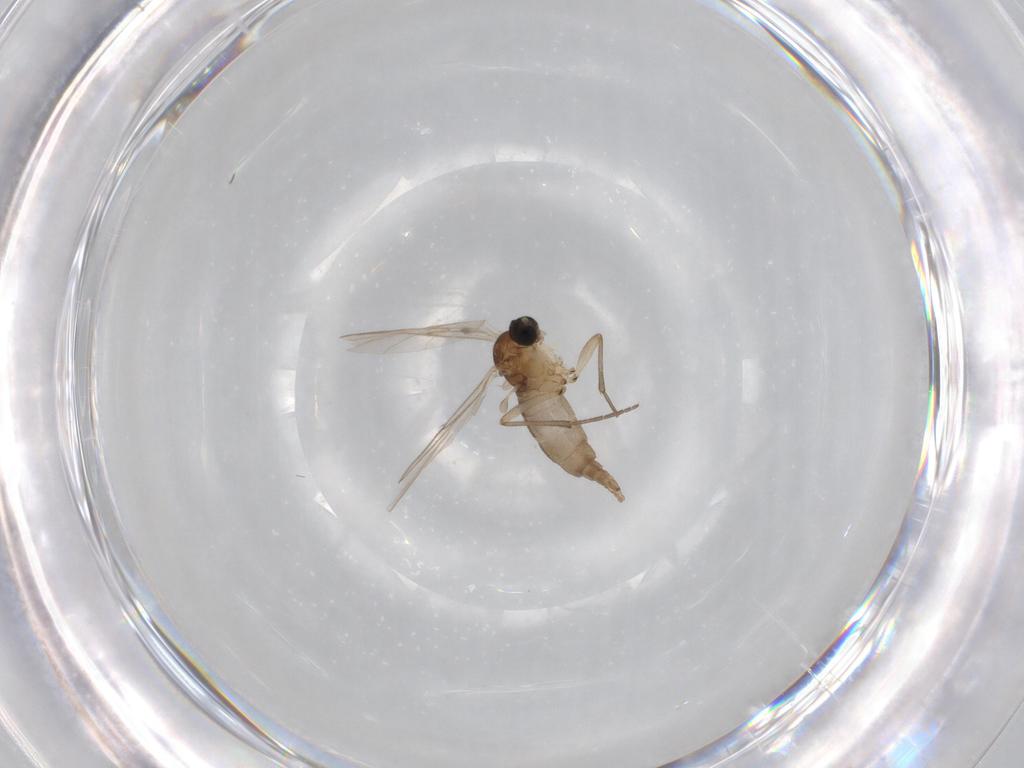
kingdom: Animalia
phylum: Arthropoda
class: Insecta
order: Diptera
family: Sciaridae
